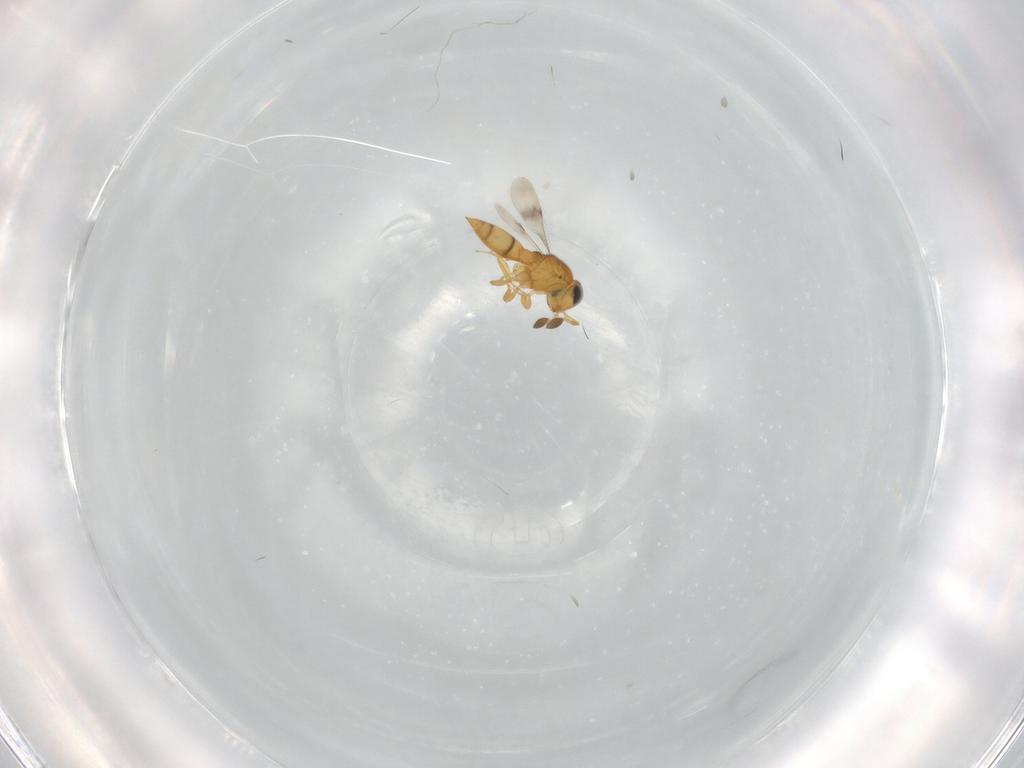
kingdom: Animalia
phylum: Arthropoda
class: Insecta
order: Hymenoptera
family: Scelionidae
